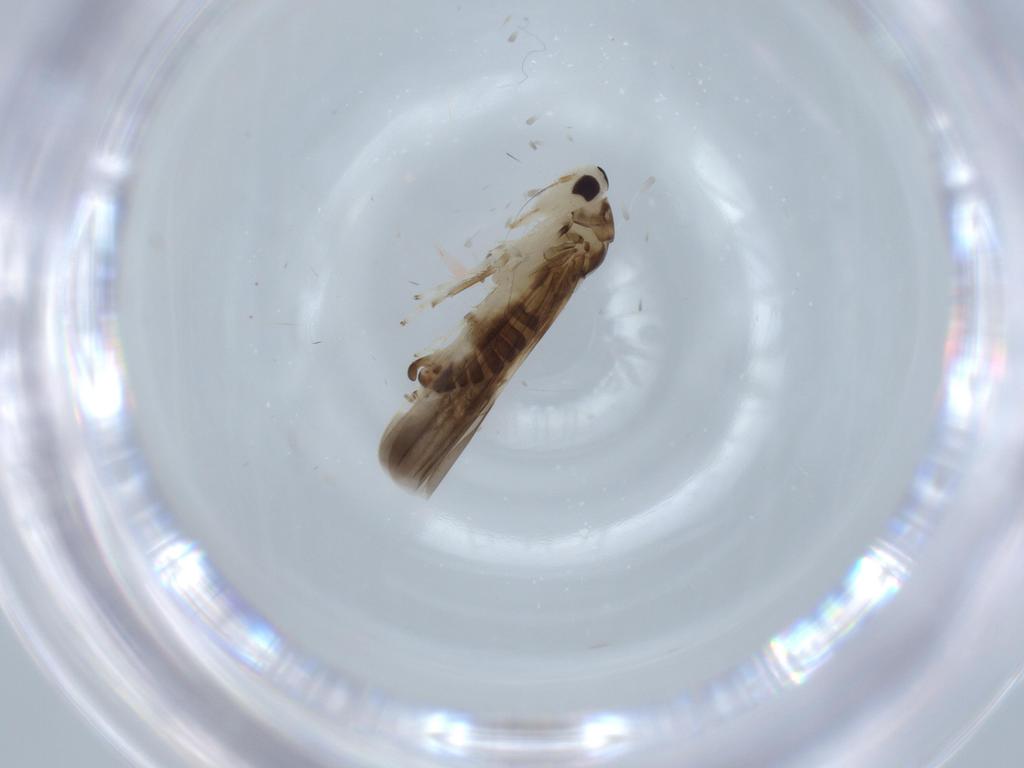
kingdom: Animalia
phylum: Arthropoda
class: Insecta
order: Hemiptera
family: Cicadellidae
